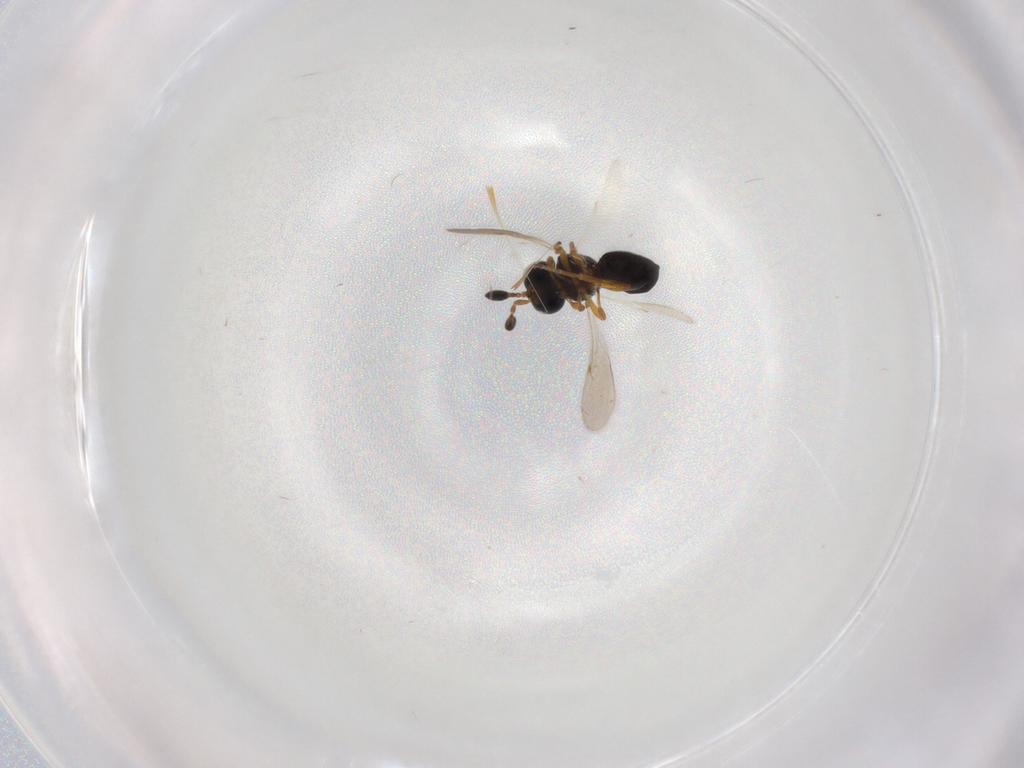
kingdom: Animalia
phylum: Arthropoda
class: Insecta
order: Hymenoptera
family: Scelionidae
